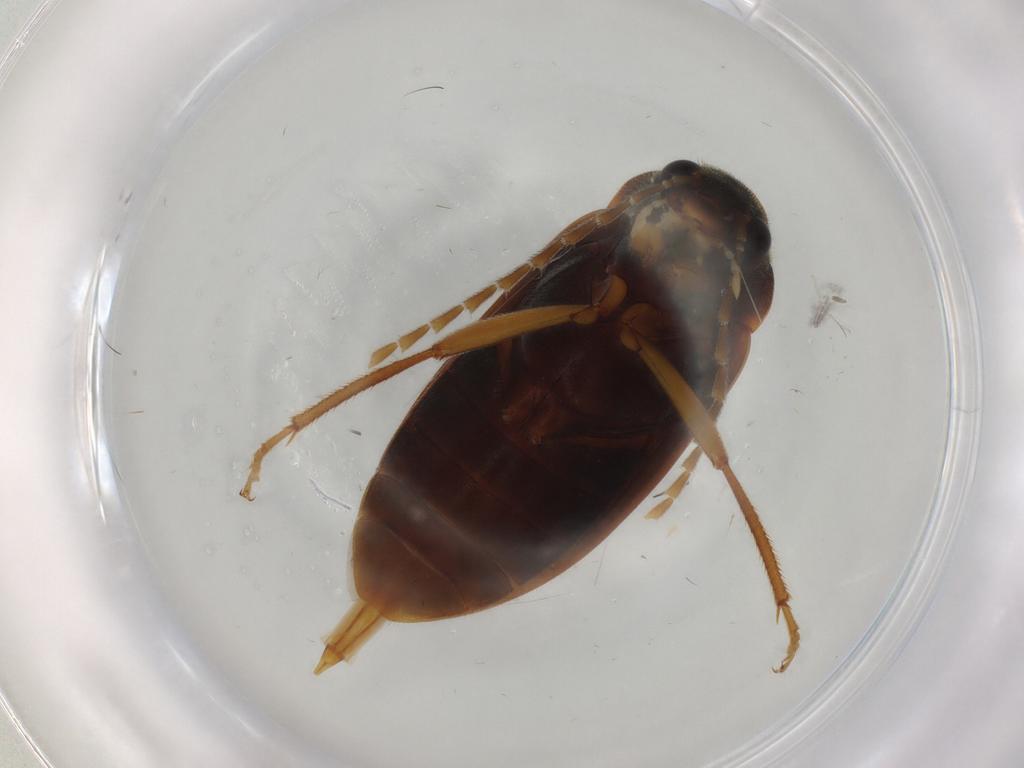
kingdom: Animalia
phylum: Arthropoda
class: Insecta
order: Coleoptera
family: Ptilodactylidae
